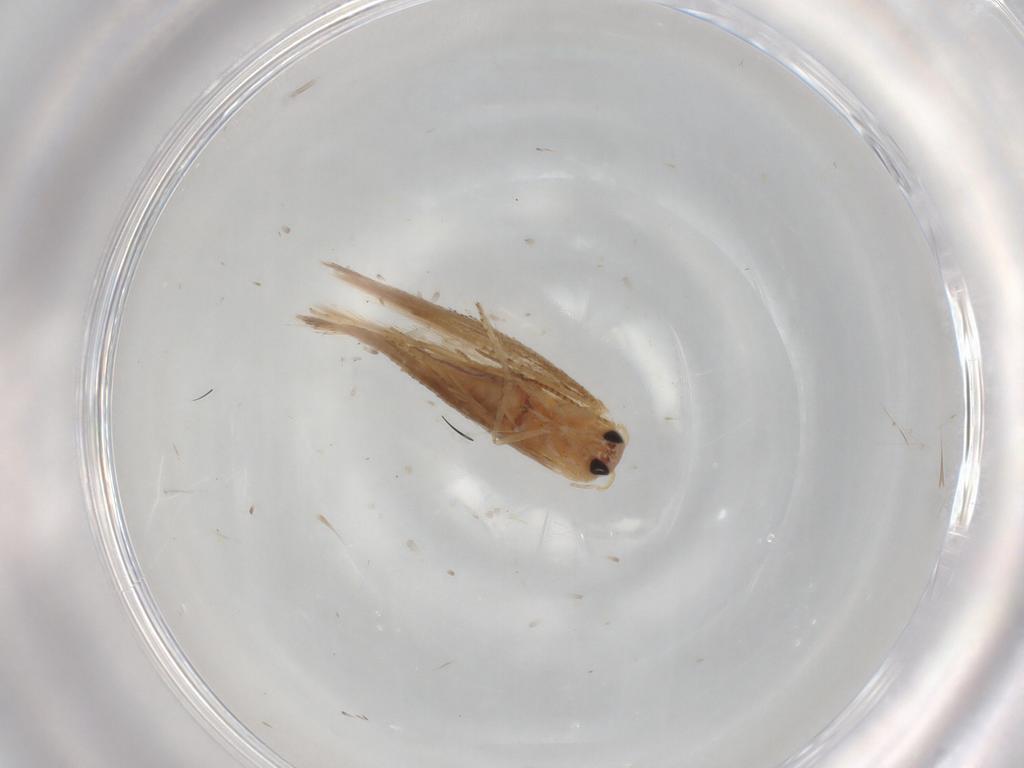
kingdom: Animalia
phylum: Arthropoda
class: Insecta
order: Lepidoptera
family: Bucculatricidae
